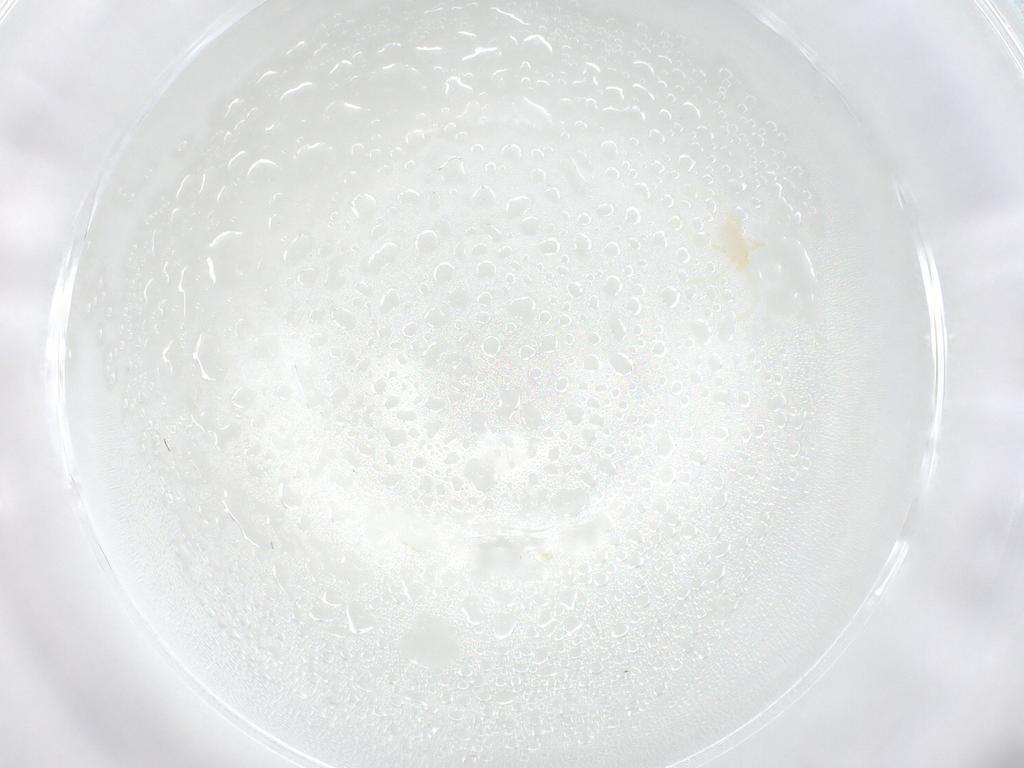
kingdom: Animalia
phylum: Arthropoda
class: Arachnida
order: Trombidiformes
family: Erythraeidae
